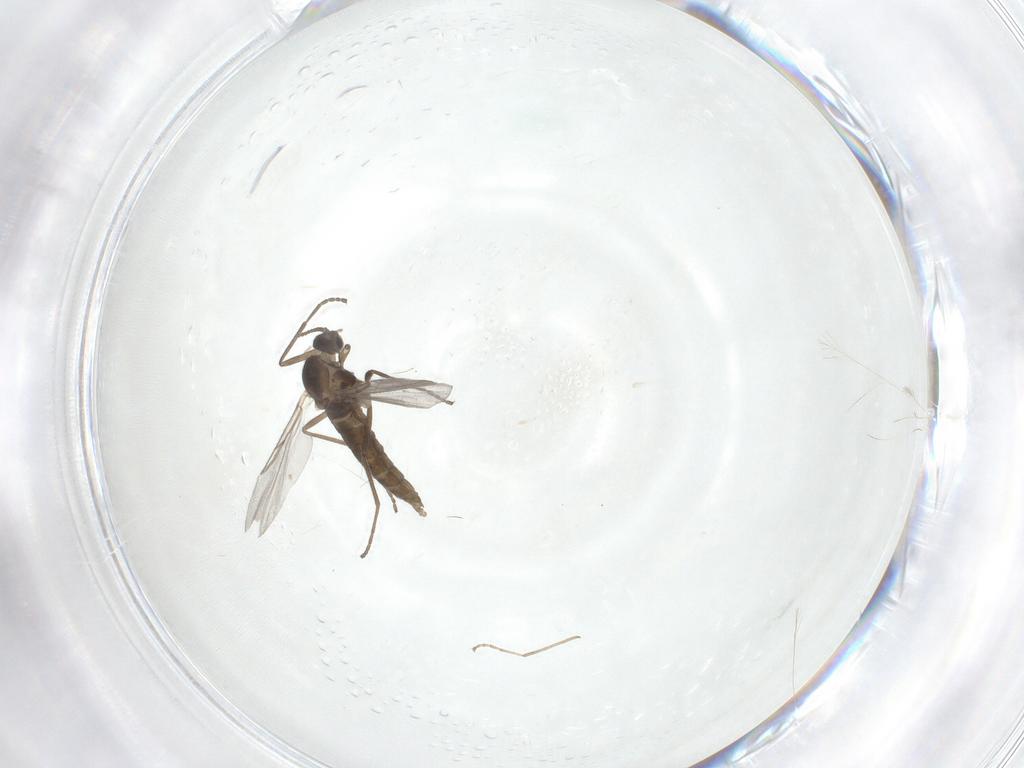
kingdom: Animalia
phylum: Arthropoda
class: Insecta
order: Diptera
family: Cecidomyiidae
